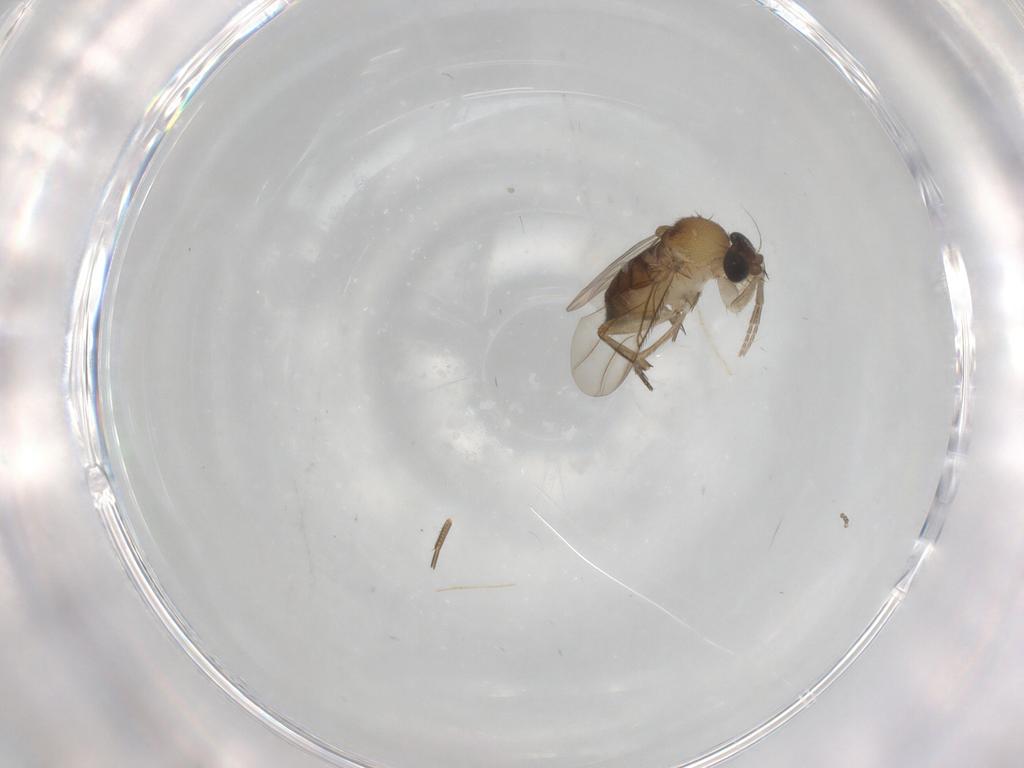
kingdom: Animalia
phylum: Arthropoda
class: Insecta
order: Diptera
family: Phoridae
